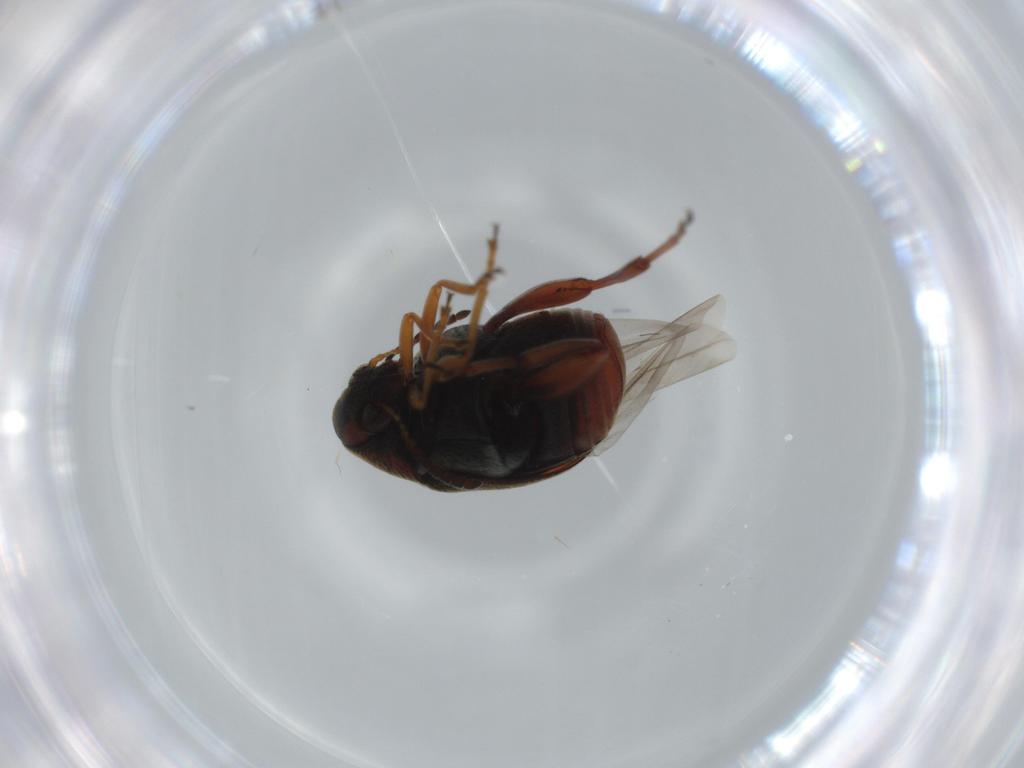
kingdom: Animalia
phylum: Arthropoda
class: Insecta
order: Coleoptera
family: Chrysomelidae
